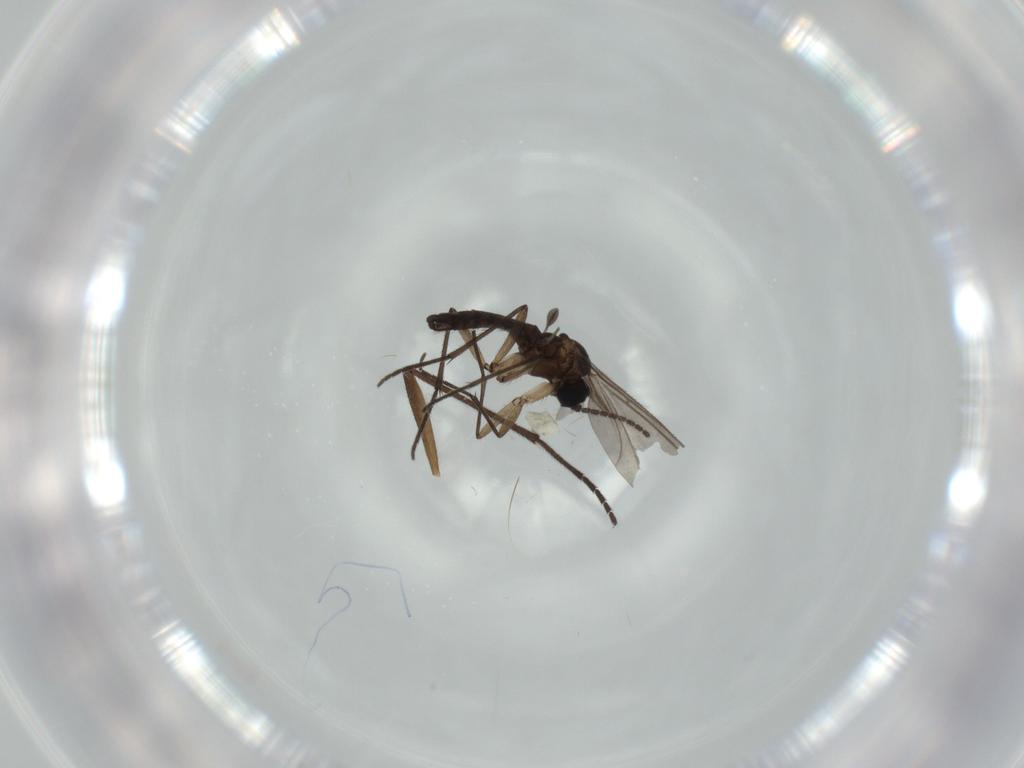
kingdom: Animalia
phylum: Arthropoda
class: Insecta
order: Diptera
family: Sciaridae
